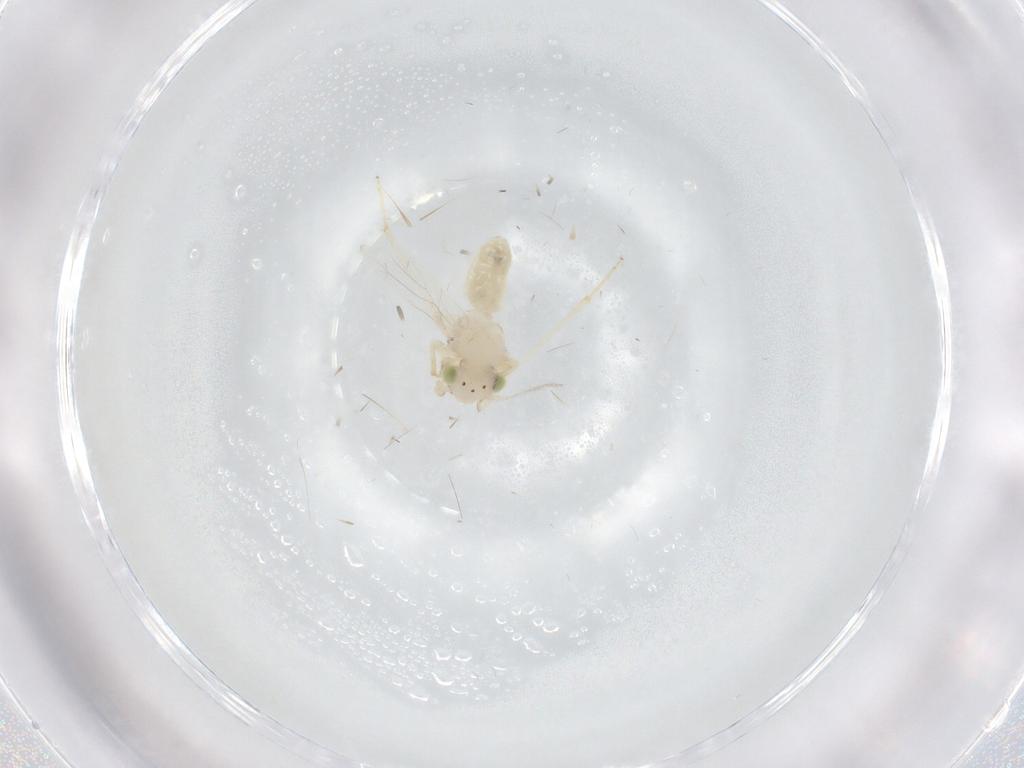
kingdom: Animalia
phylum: Arthropoda
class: Insecta
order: Psocodea
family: Lepidopsocidae
